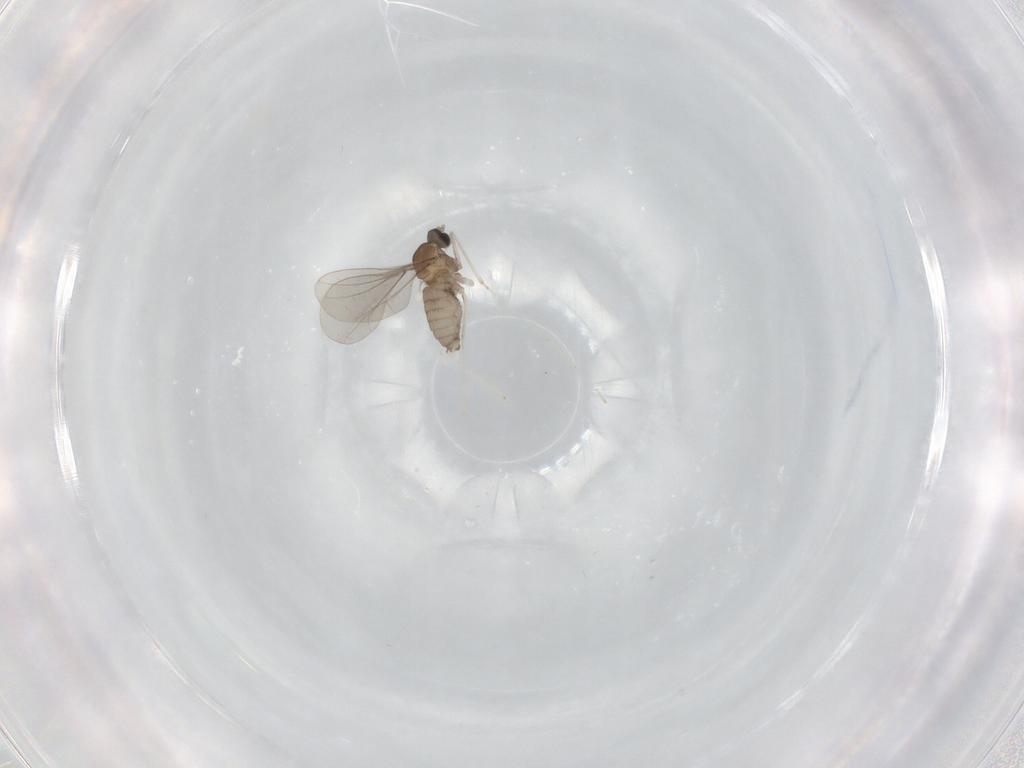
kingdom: Animalia
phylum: Arthropoda
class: Insecta
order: Diptera
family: Cecidomyiidae
